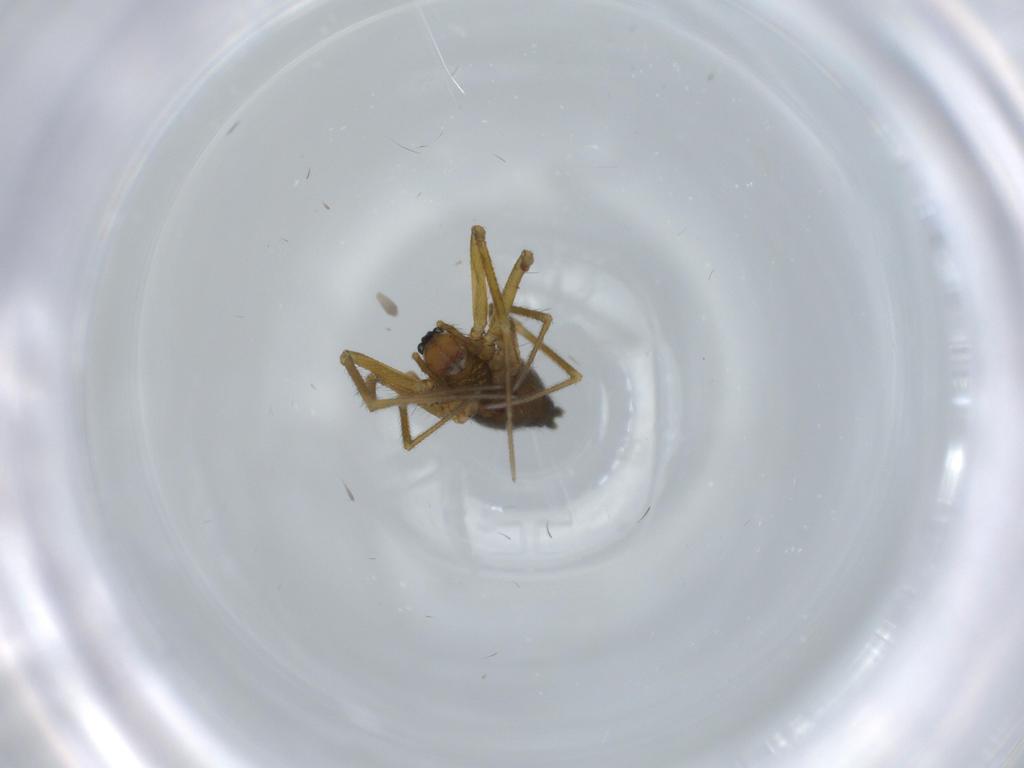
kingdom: Animalia
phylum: Arthropoda
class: Arachnida
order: Araneae
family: Linyphiidae
